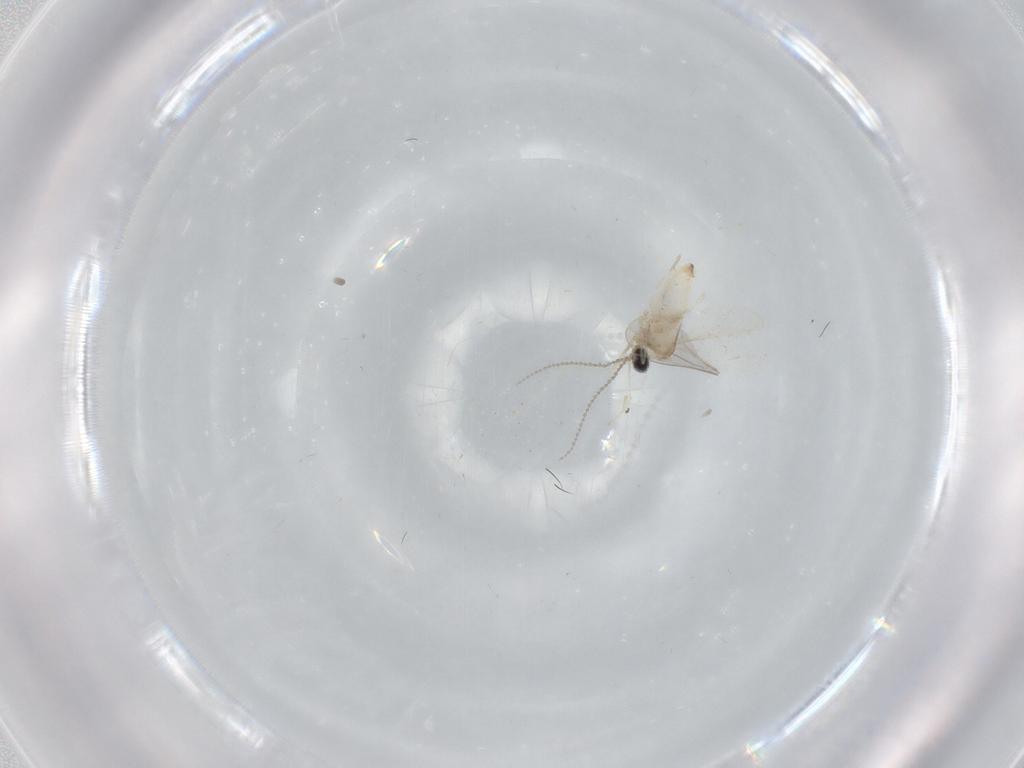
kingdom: Animalia
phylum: Arthropoda
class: Insecta
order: Diptera
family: Cecidomyiidae
